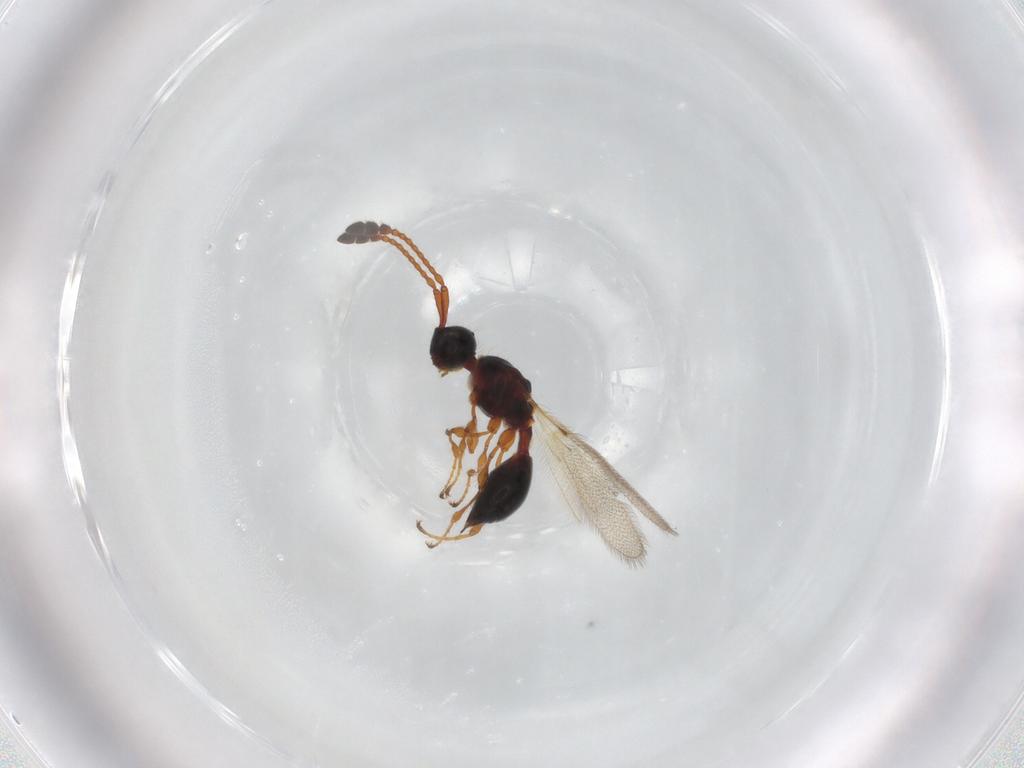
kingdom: Animalia
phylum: Arthropoda
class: Insecta
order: Hymenoptera
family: Diapriidae
